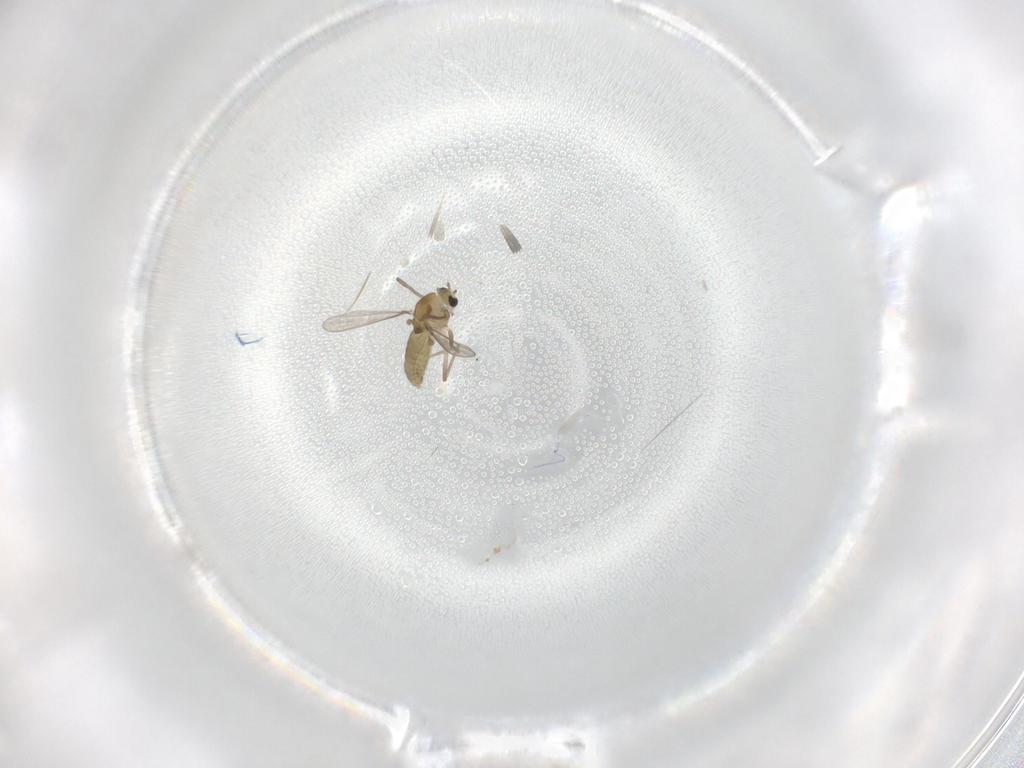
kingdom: Animalia
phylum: Arthropoda
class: Insecta
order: Diptera
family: Chironomidae
